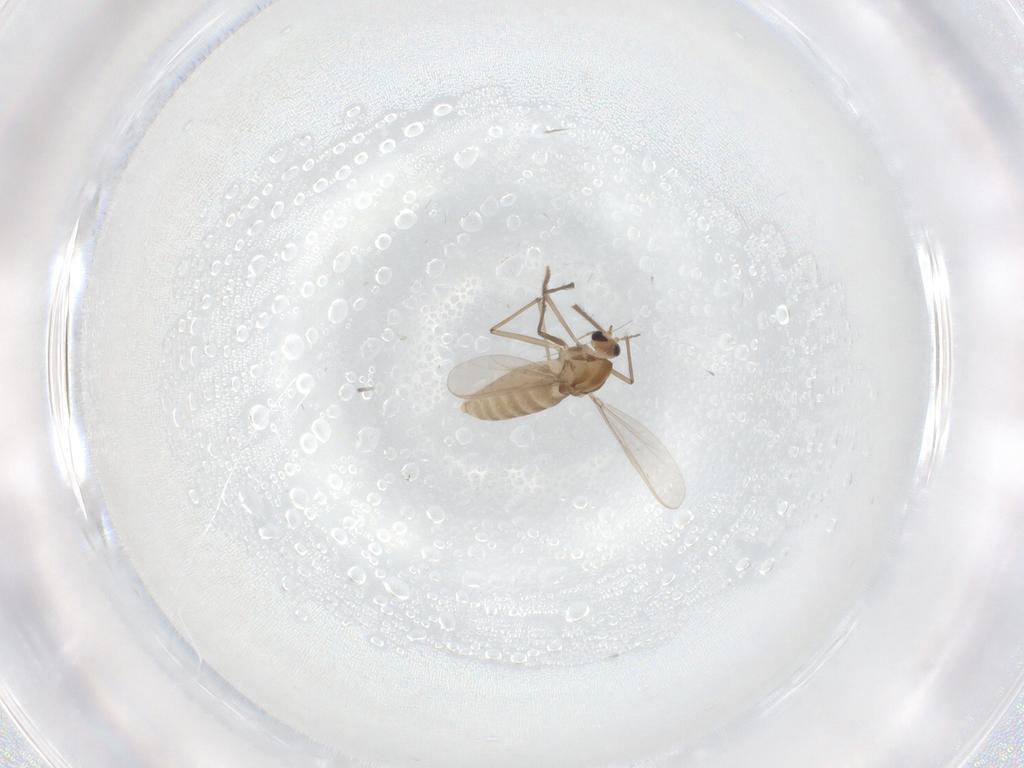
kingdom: Animalia
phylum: Arthropoda
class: Insecta
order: Diptera
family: Chironomidae
